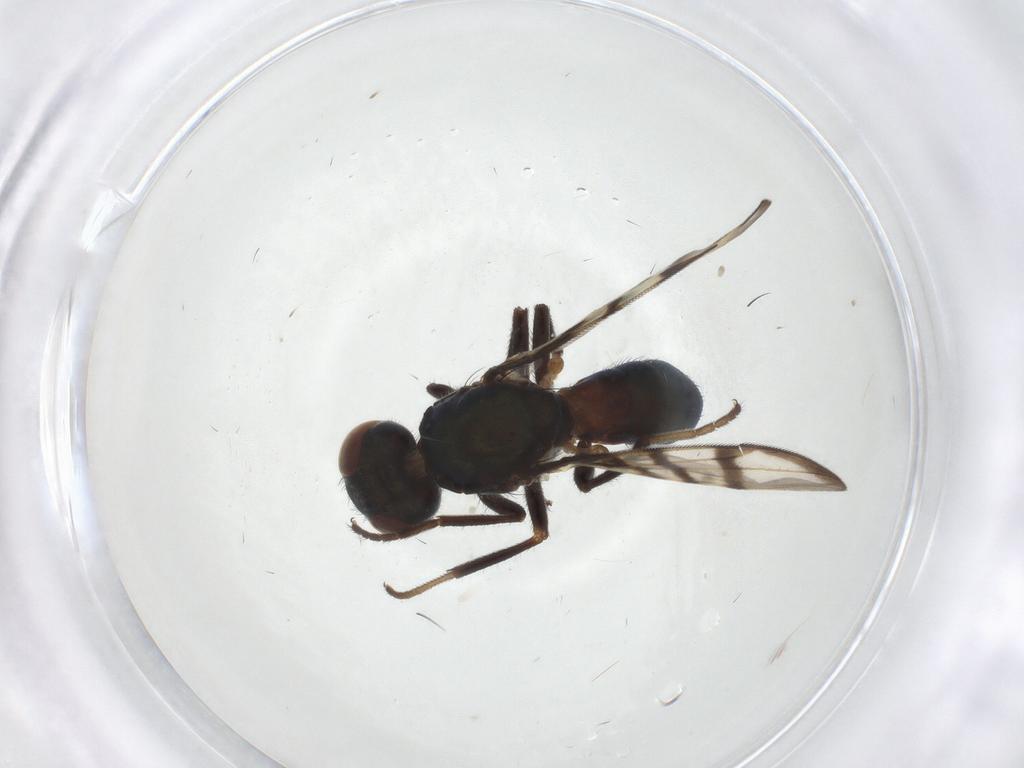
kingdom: Animalia
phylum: Arthropoda
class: Insecta
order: Diptera
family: Platystomatidae
